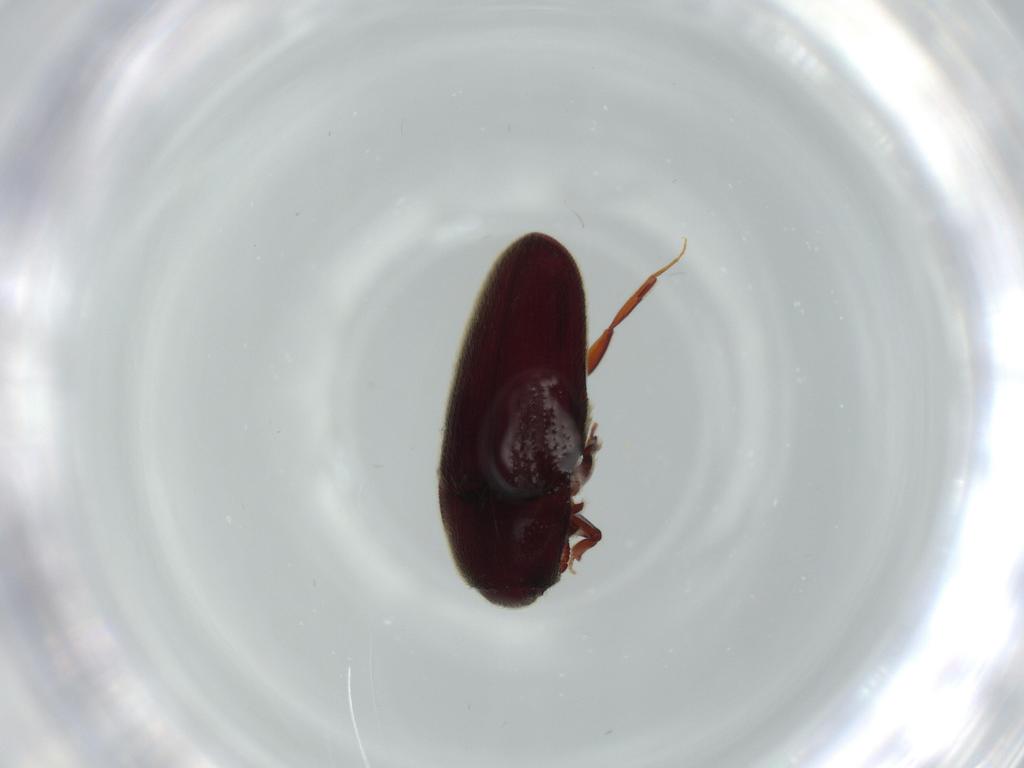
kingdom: Animalia
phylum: Arthropoda
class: Insecta
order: Coleoptera
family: Throscidae
